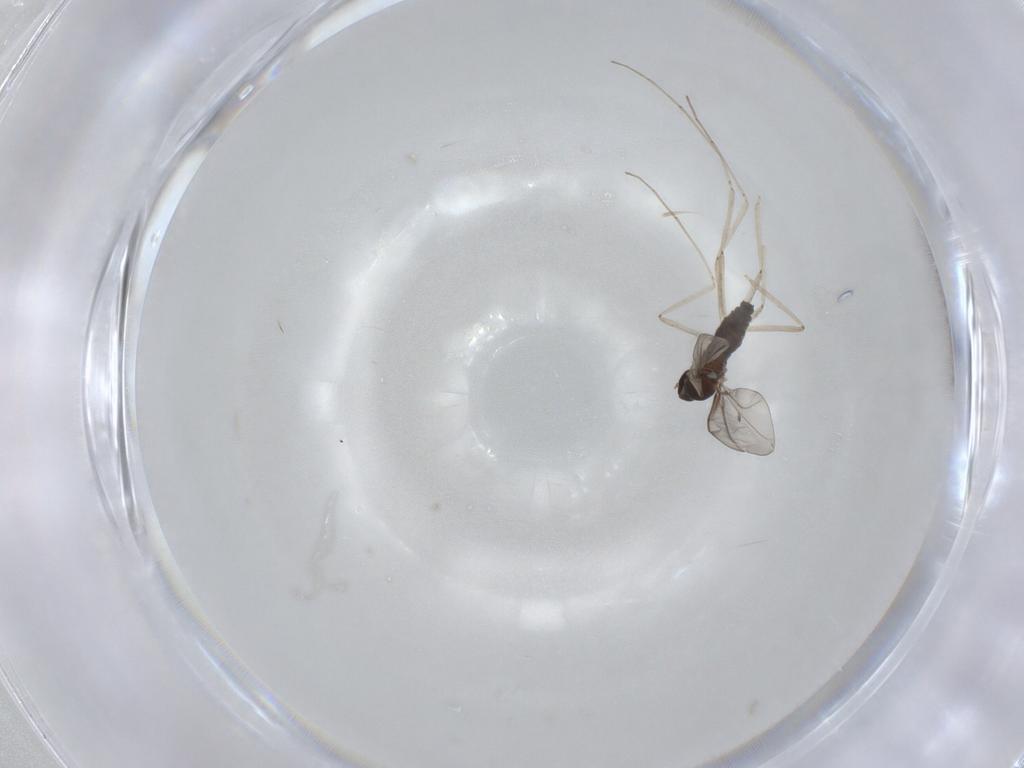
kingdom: Animalia
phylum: Arthropoda
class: Insecta
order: Diptera
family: Cecidomyiidae
